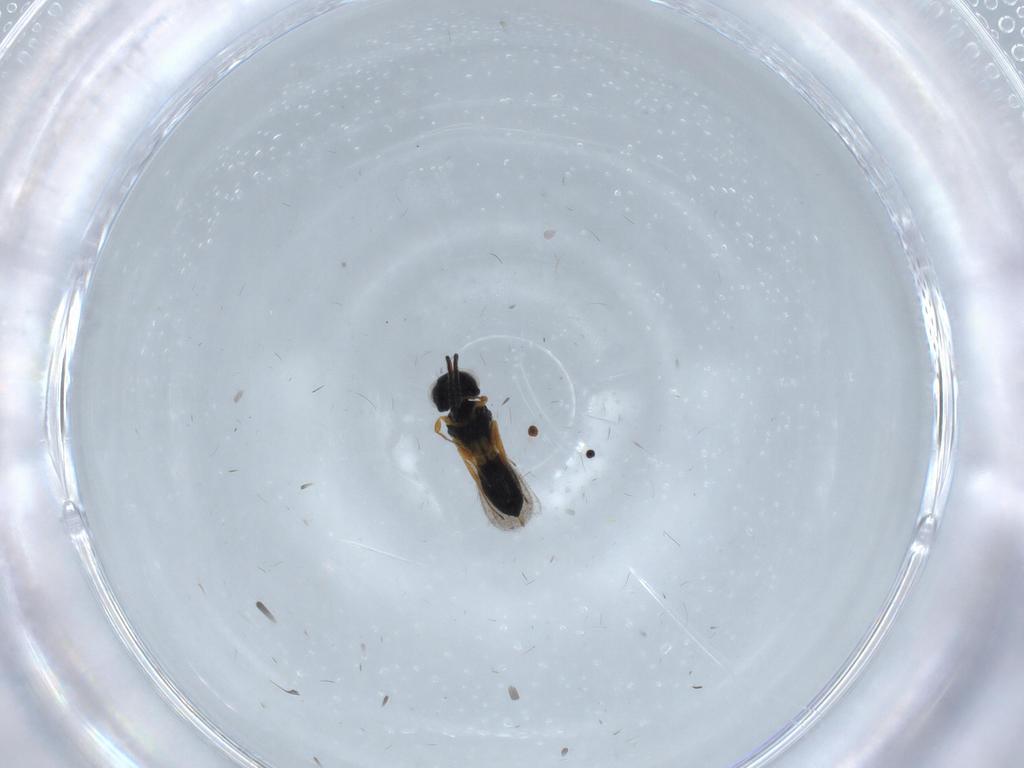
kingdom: Animalia
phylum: Arthropoda
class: Insecta
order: Hymenoptera
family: Scelionidae
